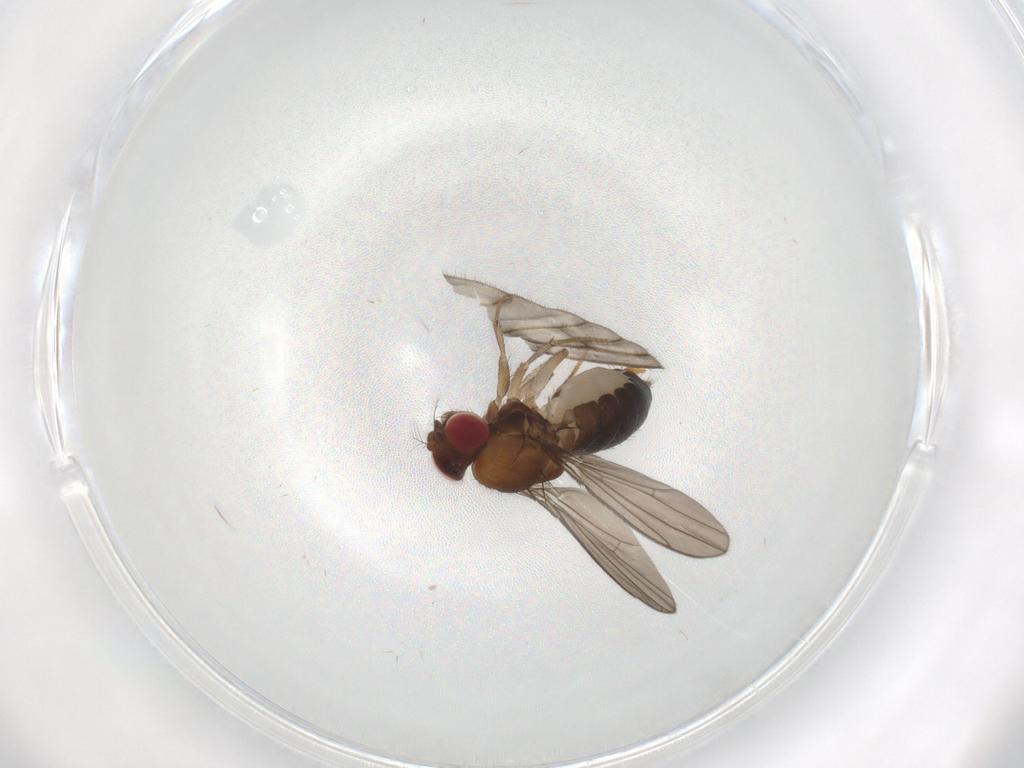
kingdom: Animalia
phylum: Arthropoda
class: Insecta
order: Diptera
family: Drosophilidae
